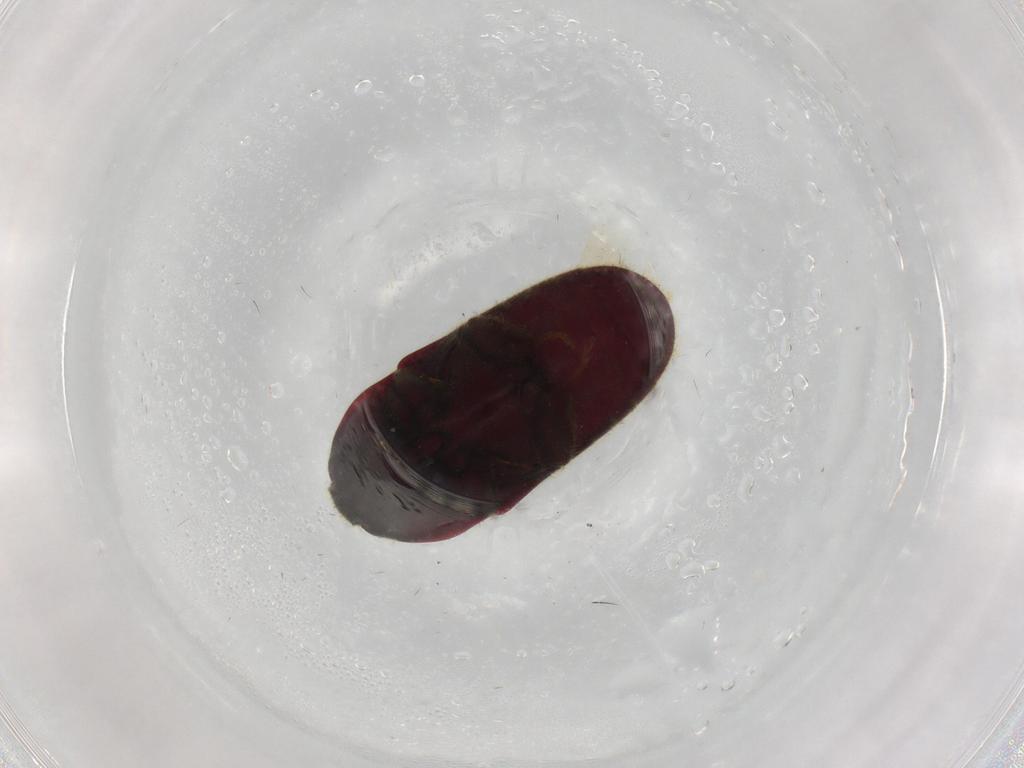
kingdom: Animalia
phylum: Arthropoda
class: Insecta
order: Coleoptera
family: Throscidae
